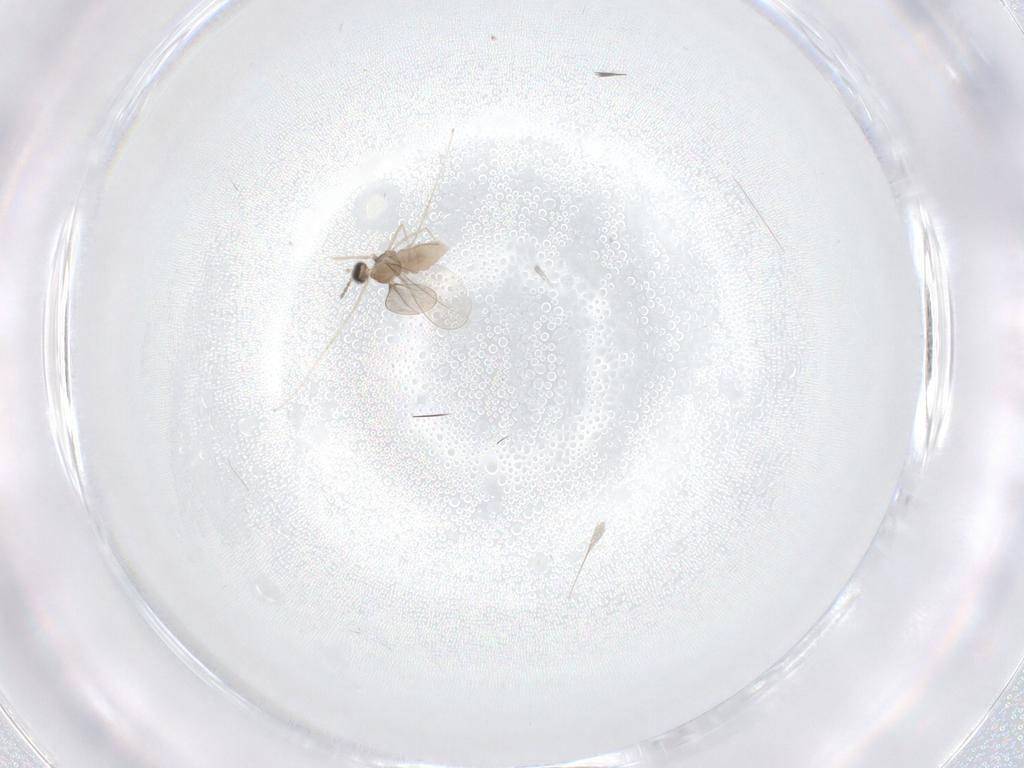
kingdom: Animalia
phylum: Arthropoda
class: Insecta
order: Diptera
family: Cecidomyiidae
